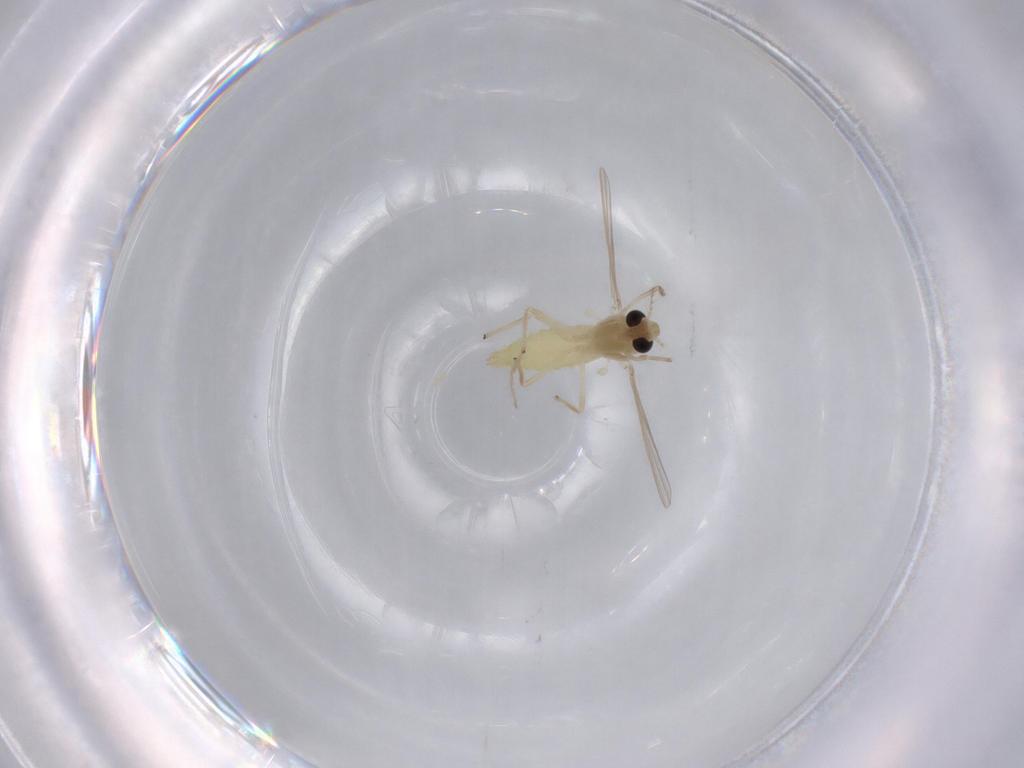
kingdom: Animalia
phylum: Arthropoda
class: Insecta
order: Diptera
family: Chironomidae
